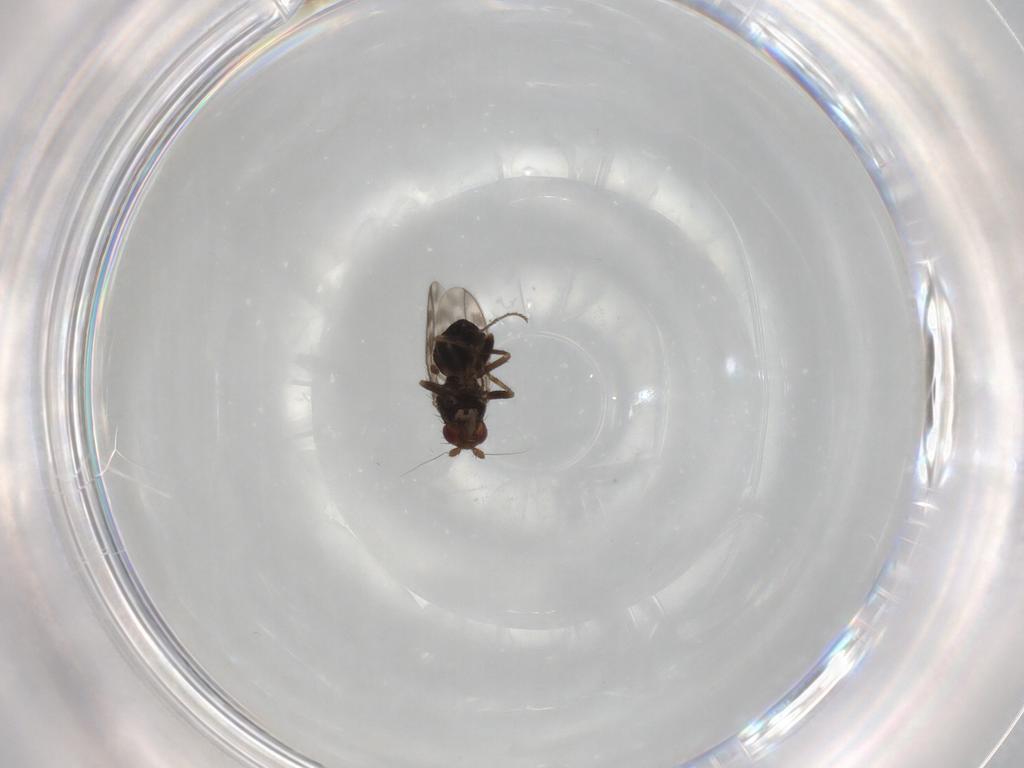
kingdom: Animalia
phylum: Arthropoda
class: Insecta
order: Diptera
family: Sphaeroceridae
